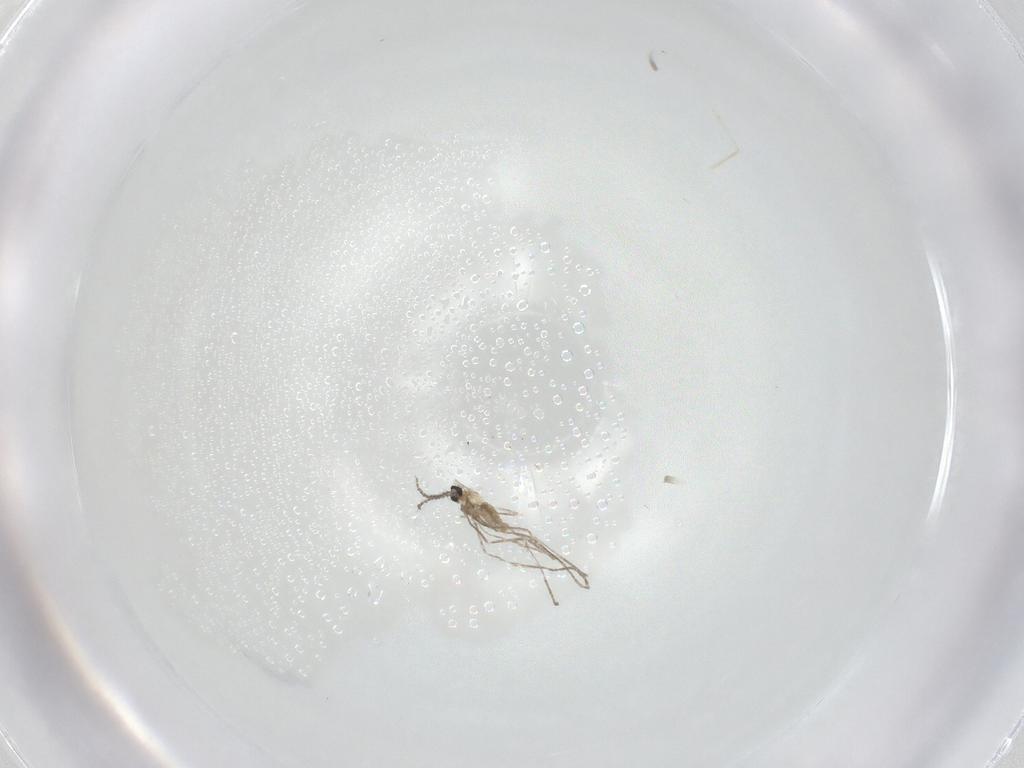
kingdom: Animalia
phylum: Arthropoda
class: Insecta
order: Diptera
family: Cecidomyiidae
